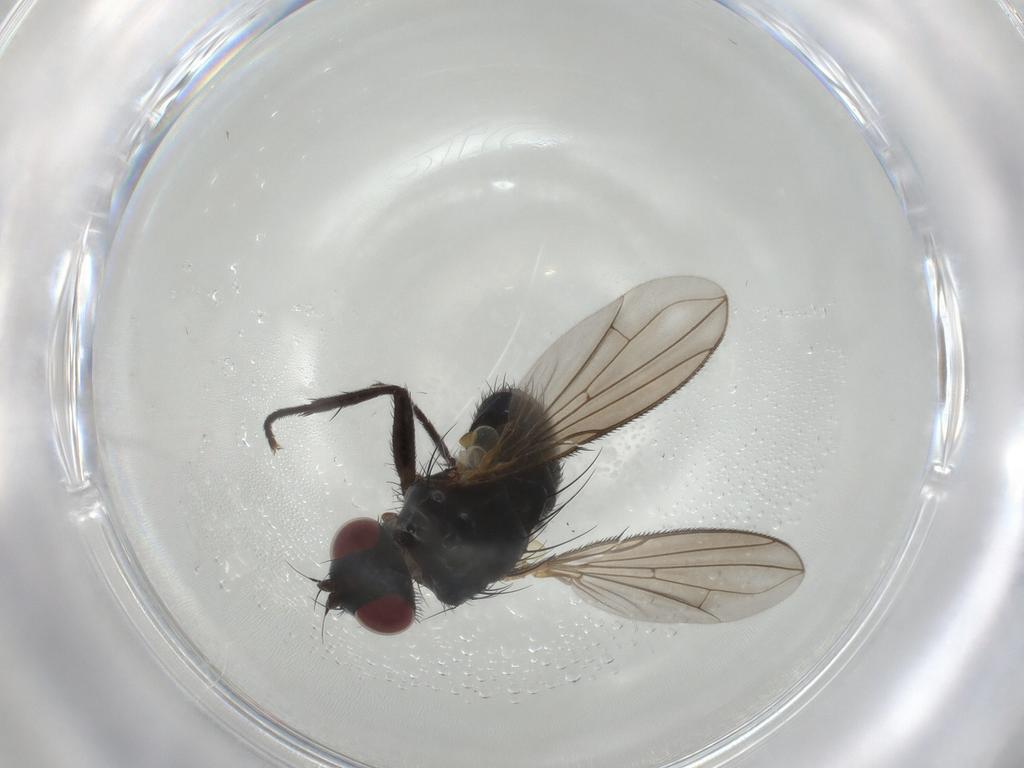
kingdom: Animalia
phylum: Arthropoda
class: Insecta
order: Diptera
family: Calliphoridae
